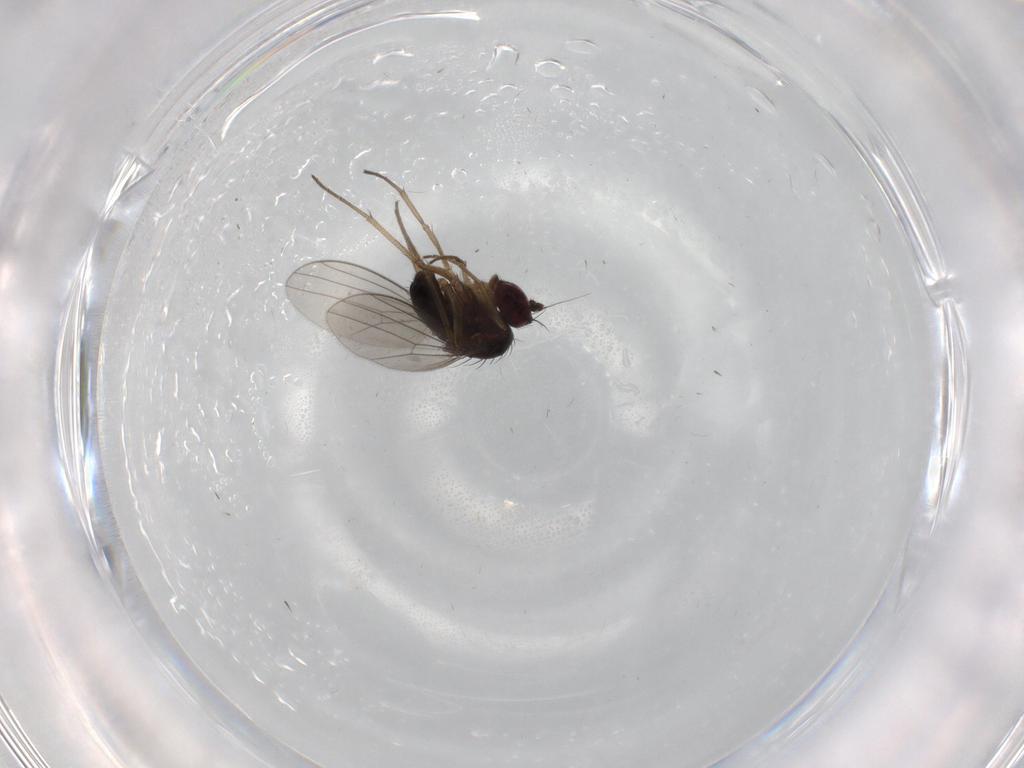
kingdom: Animalia
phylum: Arthropoda
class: Insecta
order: Diptera
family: Dolichopodidae
